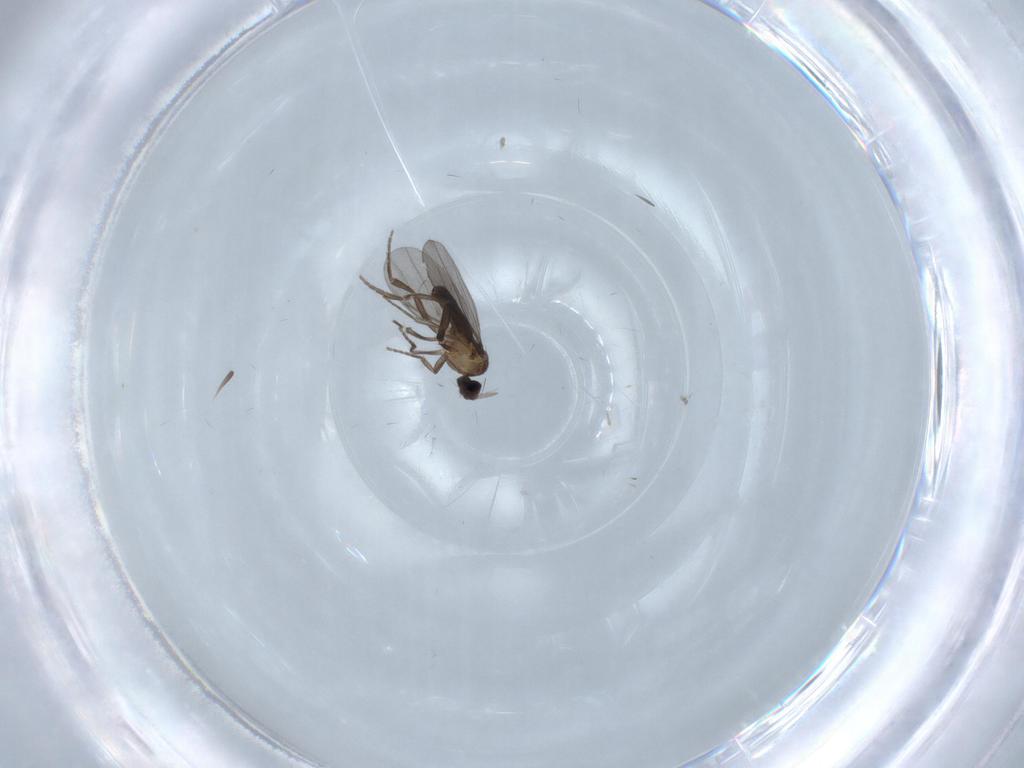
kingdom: Animalia
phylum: Arthropoda
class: Insecta
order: Diptera
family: Phoridae
